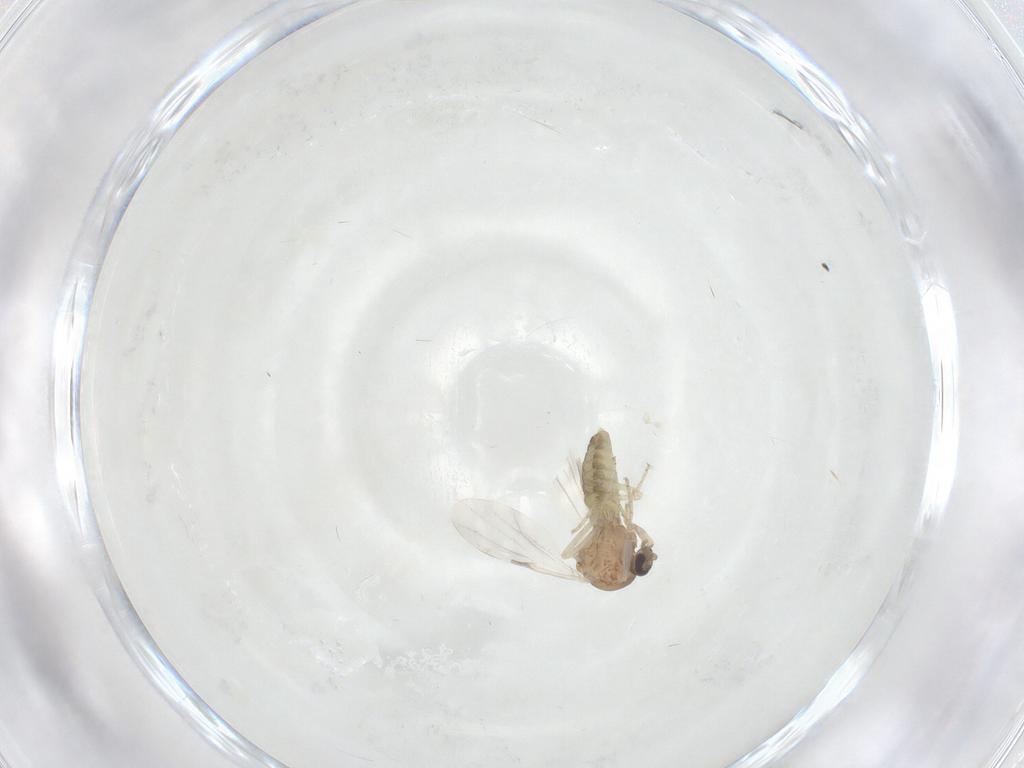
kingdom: Animalia
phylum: Arthropoda
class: Insecta
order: Diptera
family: Ceratopogonidae
